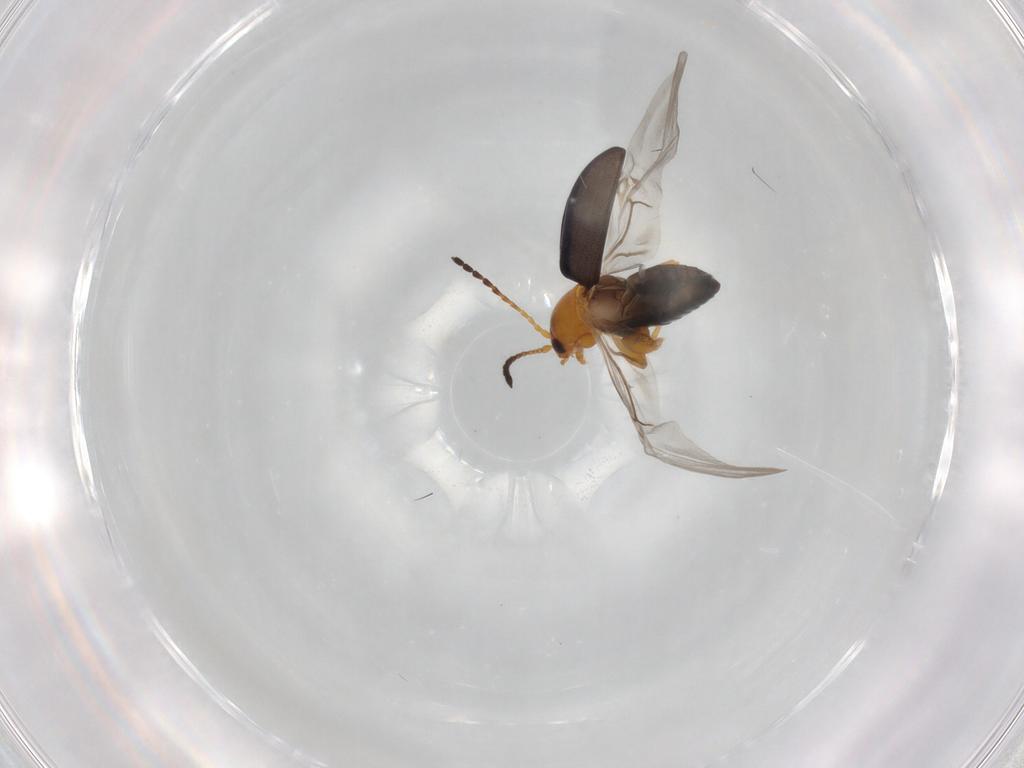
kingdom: Animalia
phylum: Arthropoda
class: Insecta
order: Coleoptera
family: Chrysomelidae
